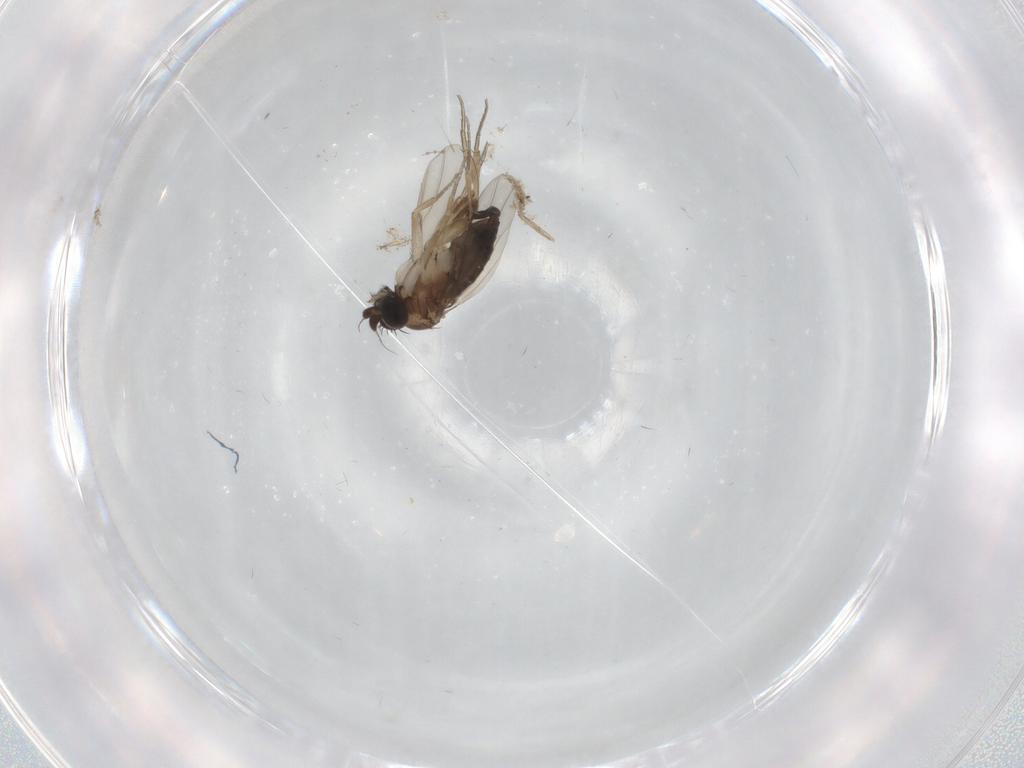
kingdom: Animalia
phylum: Arthropoda
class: Insecta
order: Diptera
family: Phoridae
